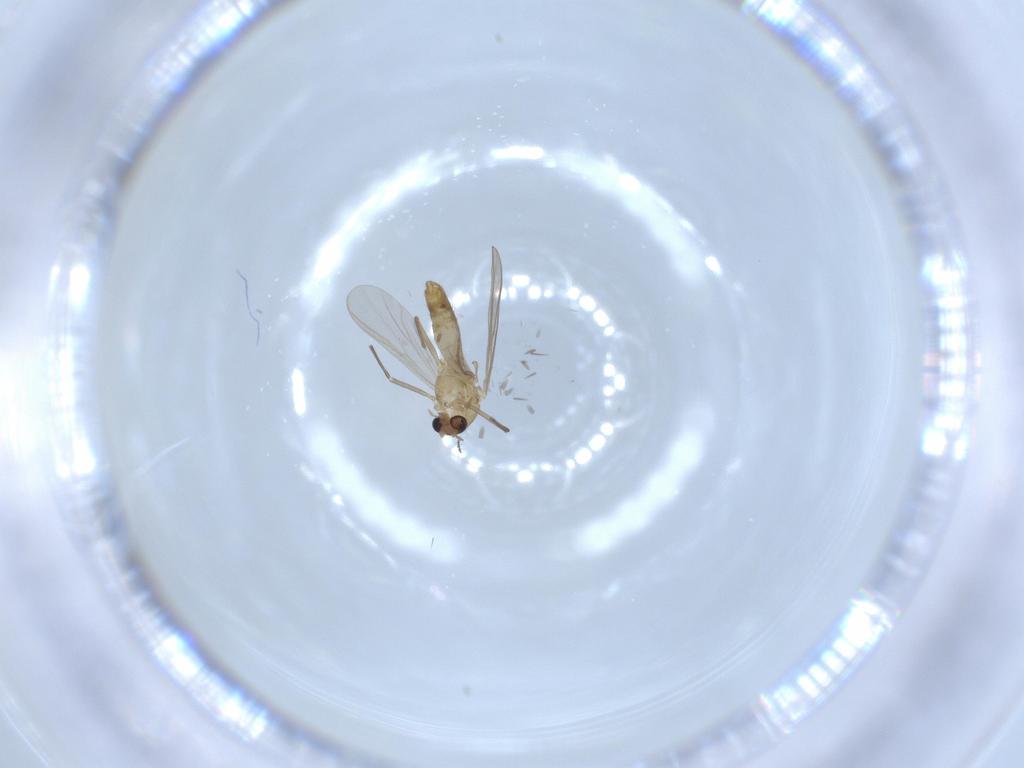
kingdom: Animalia
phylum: Arthropoda
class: Insecta
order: Diptera
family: Chironomidae
